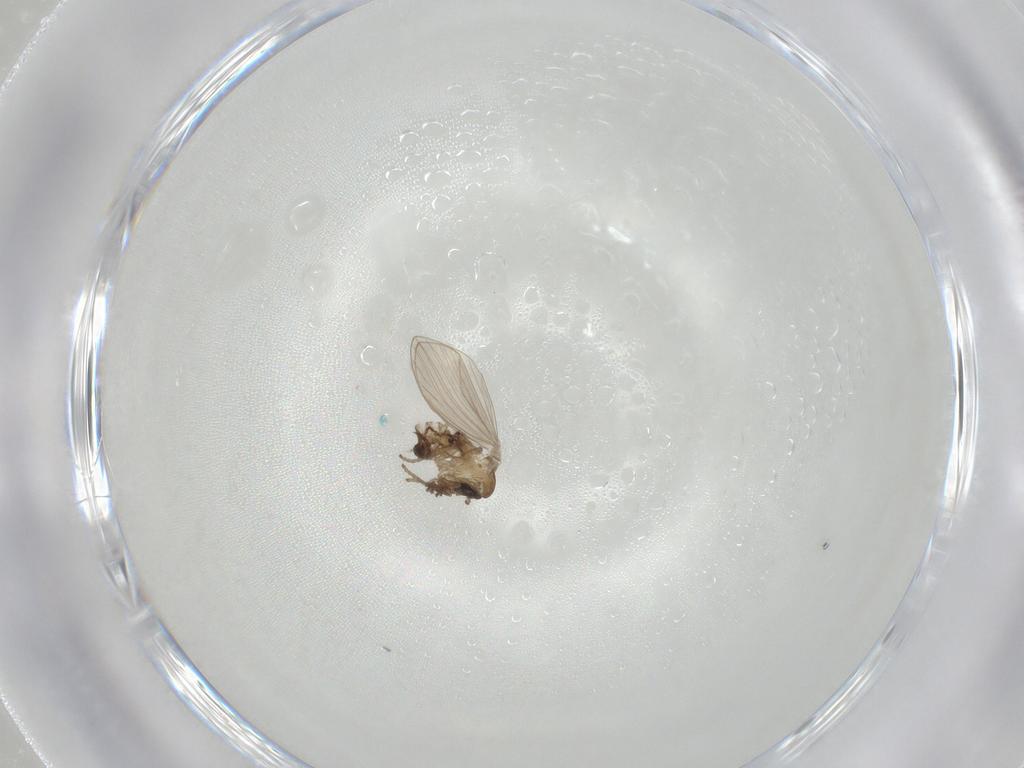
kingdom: Animalia
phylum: Arthropoda
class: Insecta
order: Diptera
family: Psychodidae
